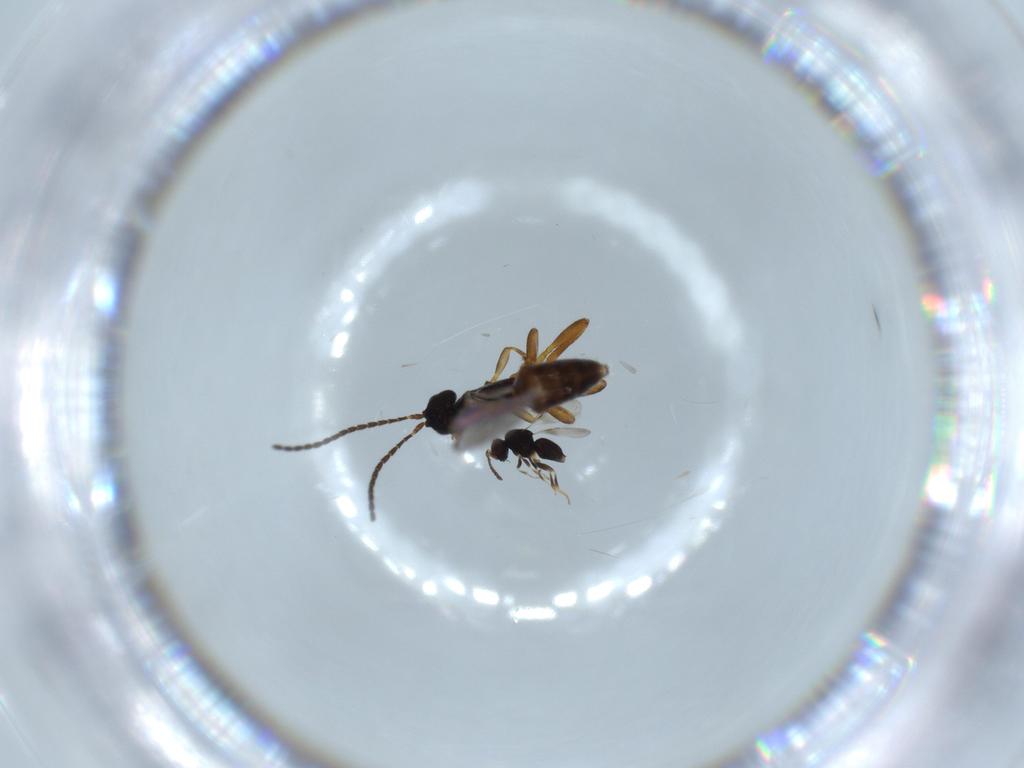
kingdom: Animalia
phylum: Arthropoda
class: Insecta
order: Hymenoptera
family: Braconidae
